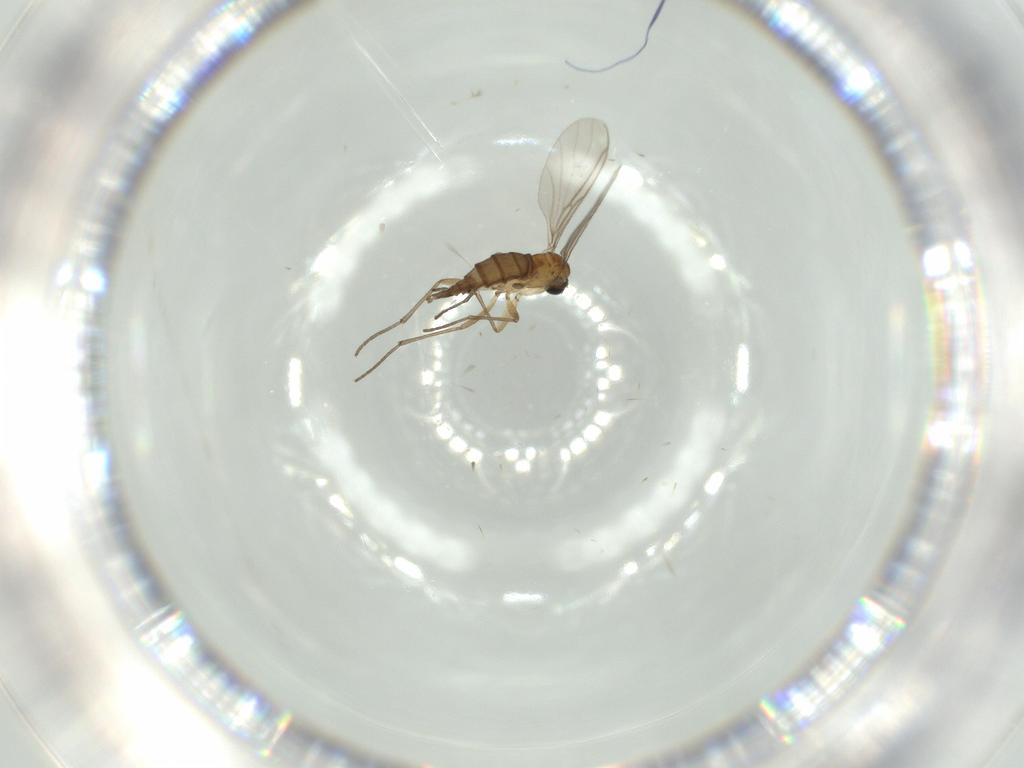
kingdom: Animalia
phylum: Arthropoda
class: Insecta
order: Diptera
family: Sciaridae
